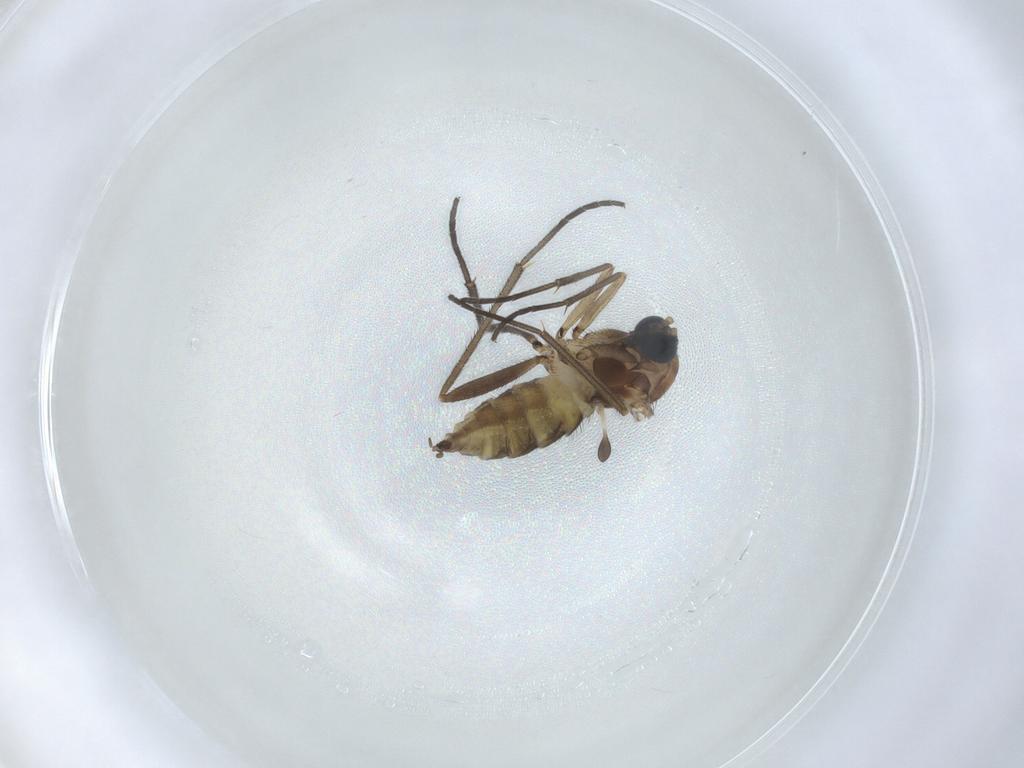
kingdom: Animalia
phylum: Arthropoda
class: Insecta
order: Diptera
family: Sciaridae
